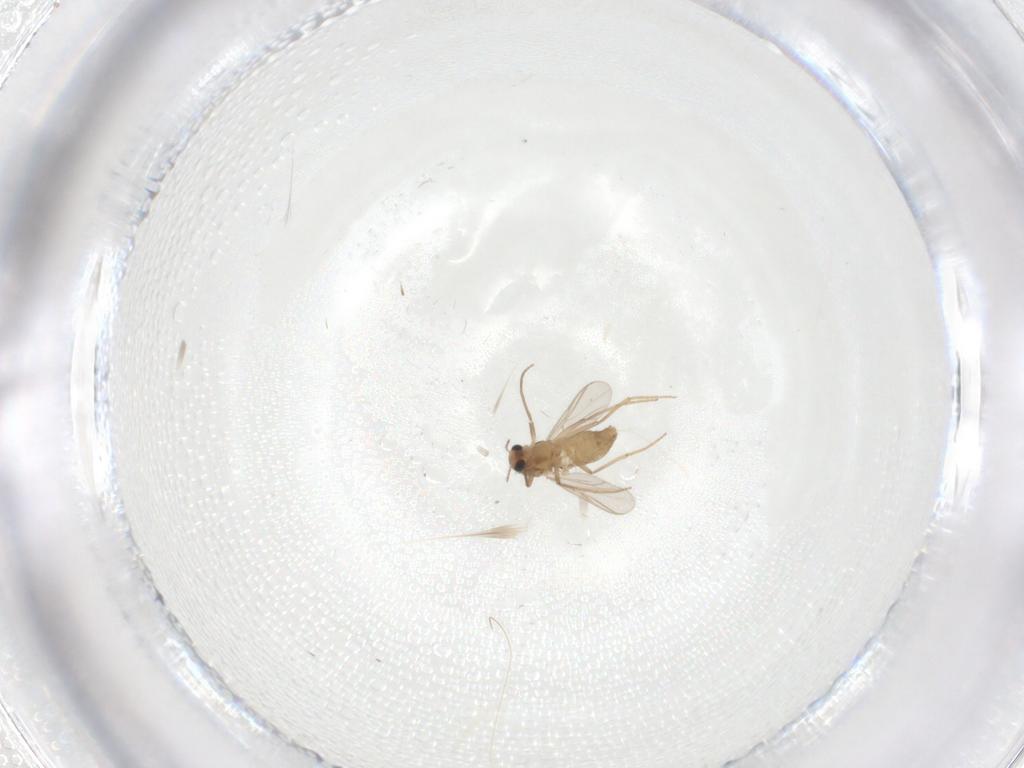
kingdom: Animalia
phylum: Arthropoda
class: Insecta
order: Diptera
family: Chironomidae
